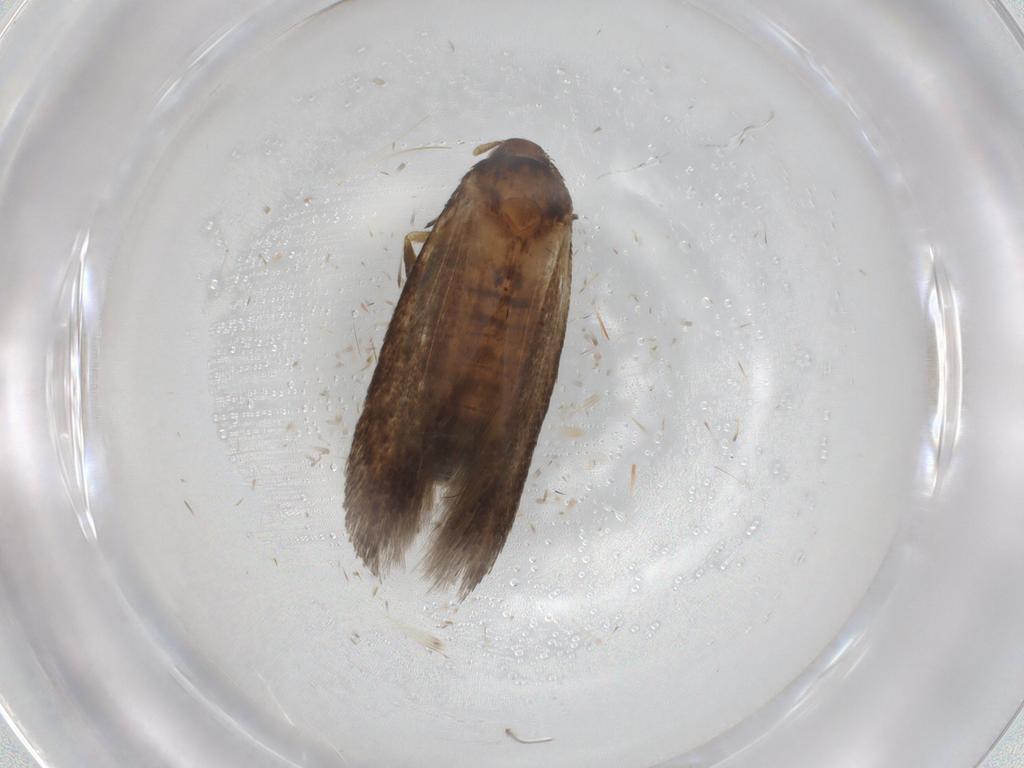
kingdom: Animalia
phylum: Arthropoda
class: Insecta
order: Lepidoptera
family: Cosmopterigidae
